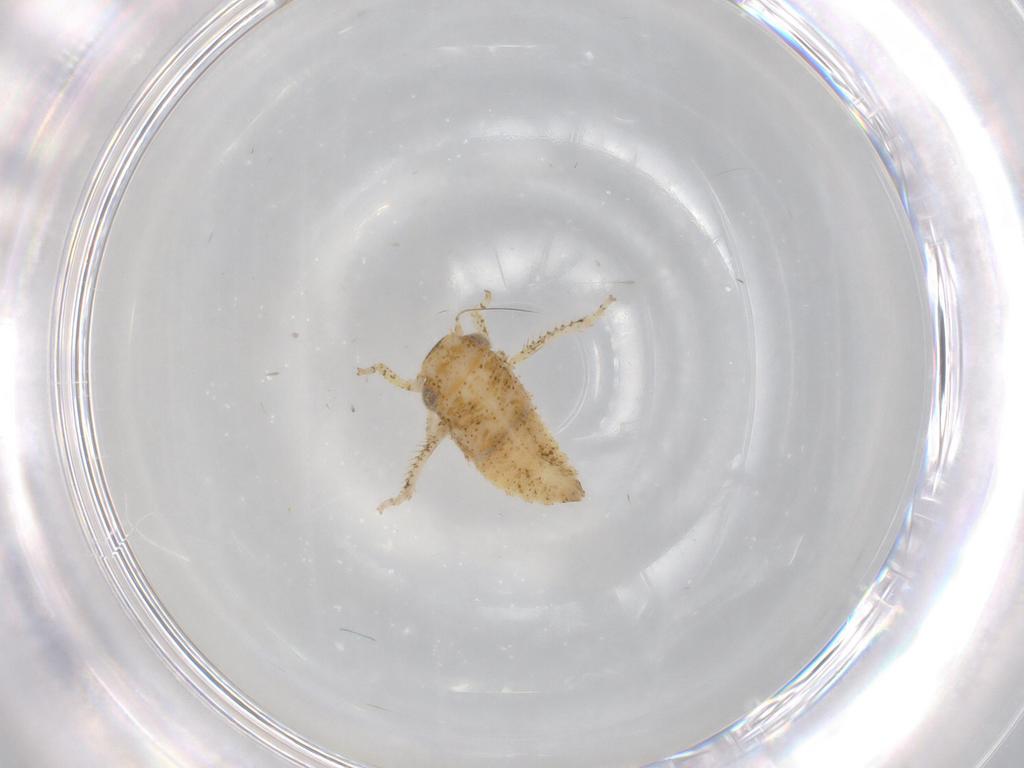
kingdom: Animalia
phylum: Arthropoda
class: Insecta
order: Hemiptera
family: Cicadellidae
